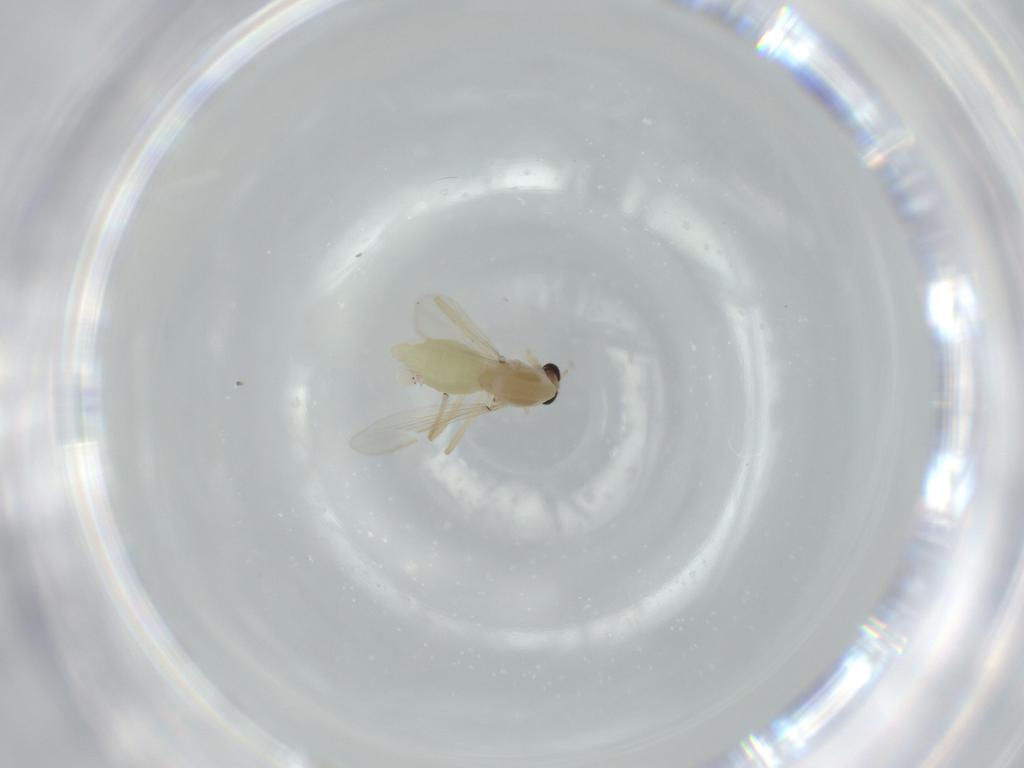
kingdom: Animalia
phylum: Arthropoda
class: Insecta
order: Diptera
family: Chironomidae
